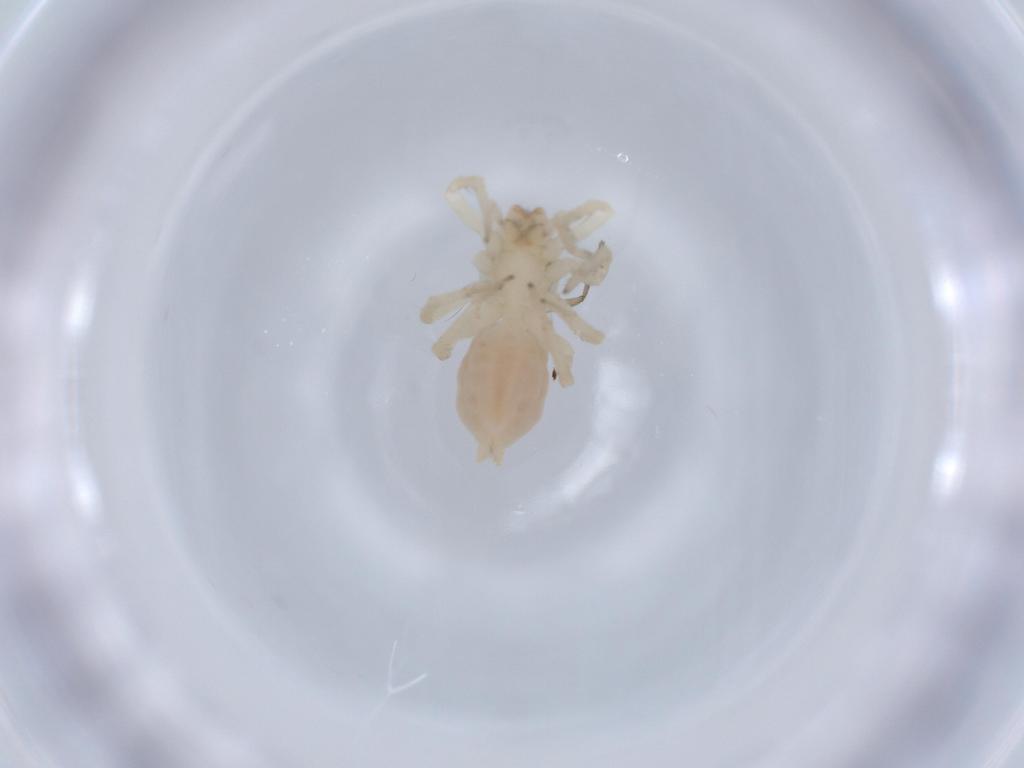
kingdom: Animalia
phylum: Arthropoda
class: Arachnida
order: Araneae
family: Clubionidae
